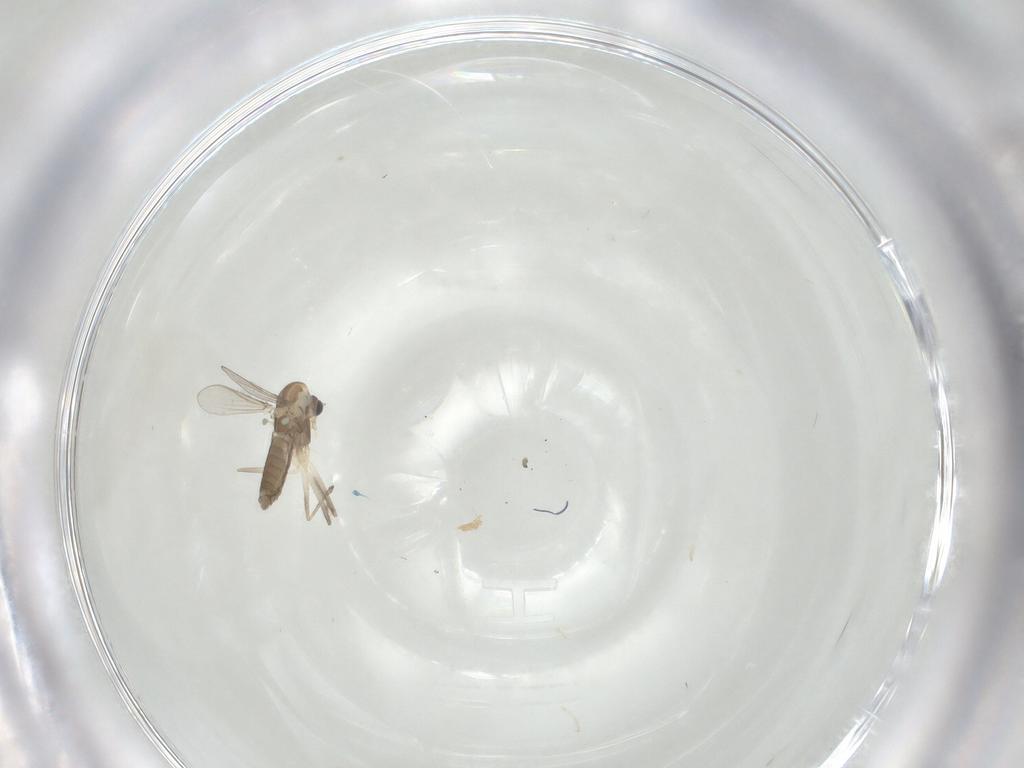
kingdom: Animalia
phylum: Arthropoda
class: Insecta
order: Diptera
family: Chironomidae
